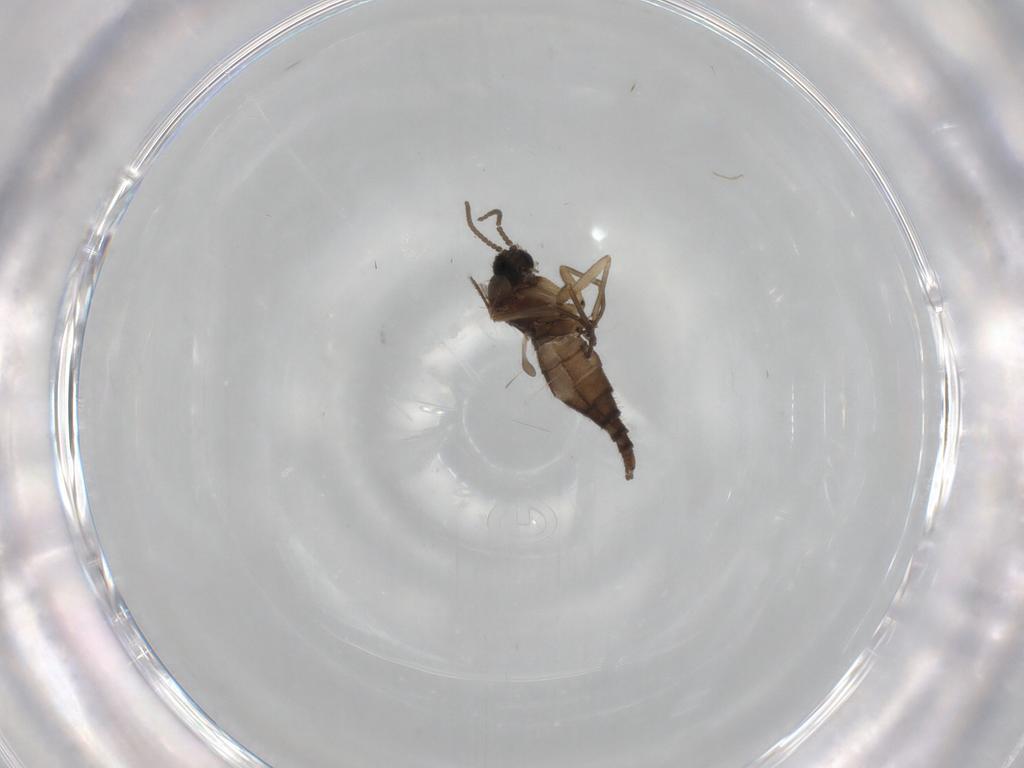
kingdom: Animalia
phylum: Arthropoda
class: Insecta
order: Diptera
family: Sciaridae
